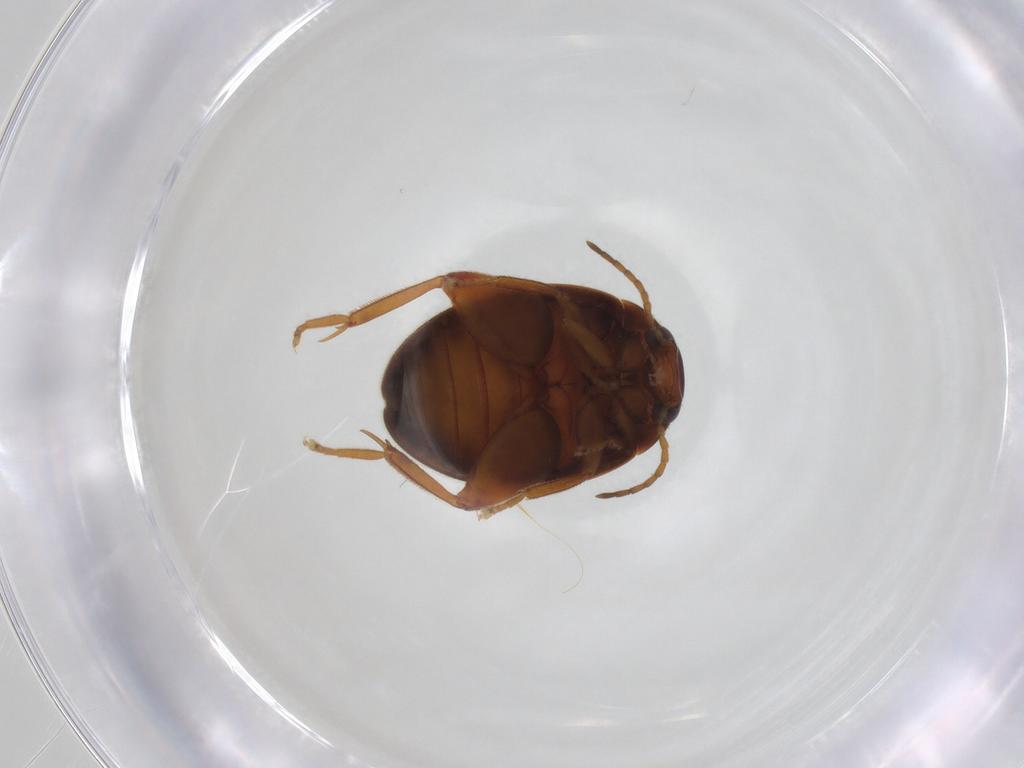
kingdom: Animalia
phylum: Arthropoda
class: Insecta
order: Coleoptera
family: Scirtidae
